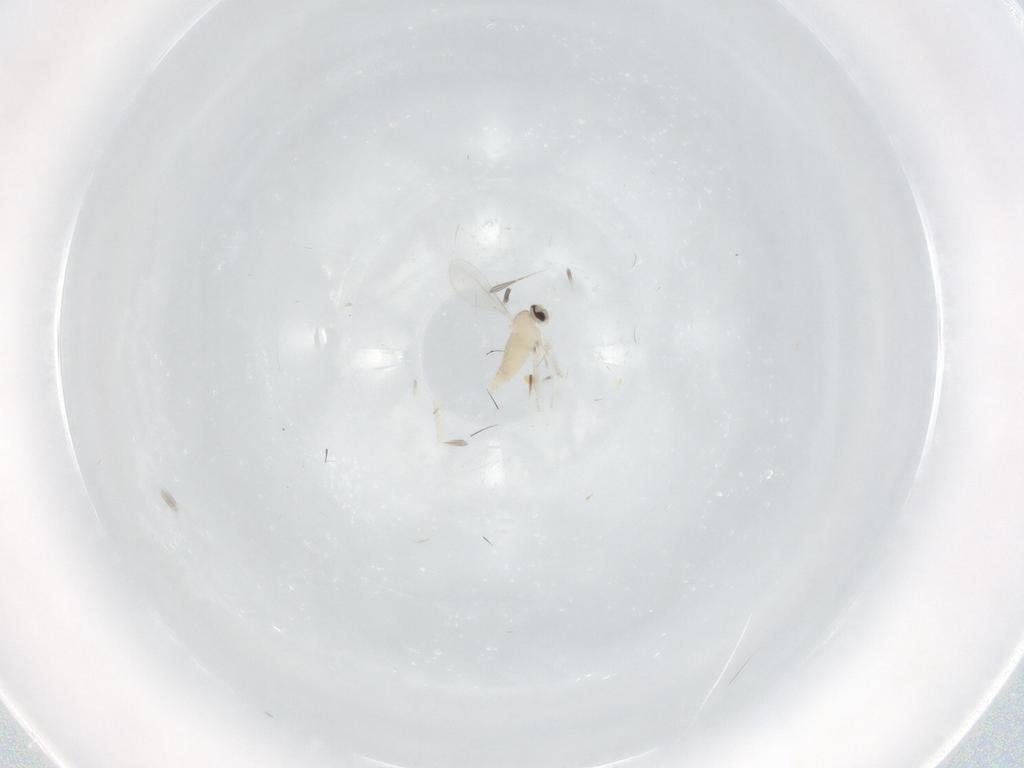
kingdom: Animalia
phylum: Arthropoda
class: Insecta
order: Diptera
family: Cecidomyiidae
